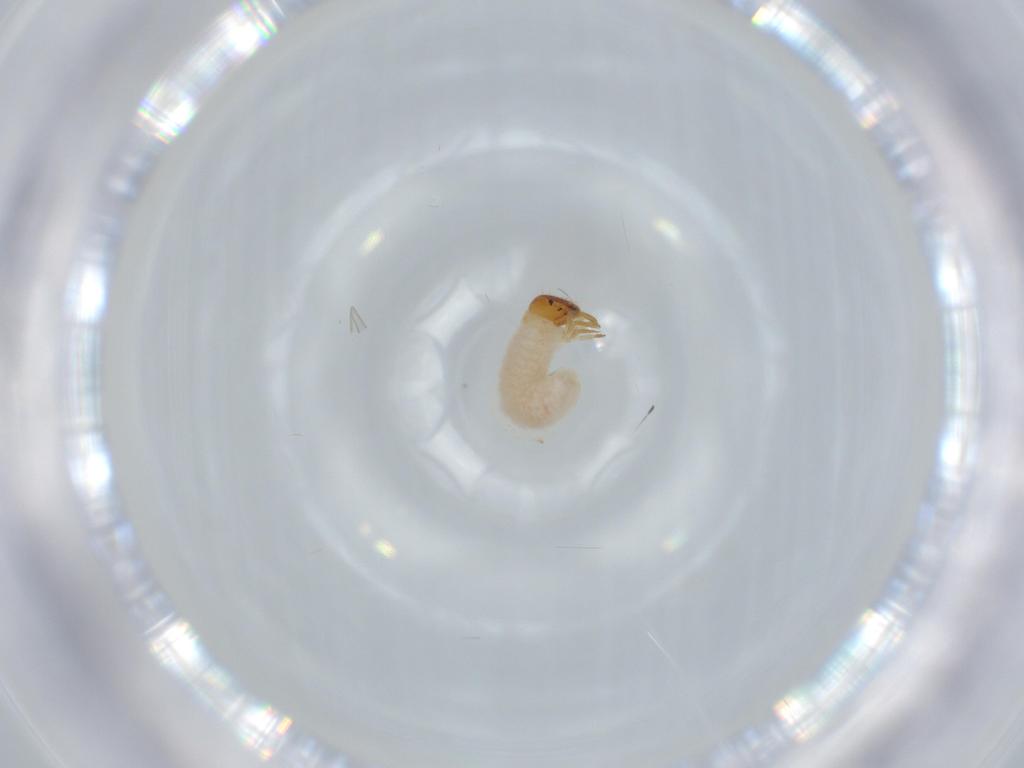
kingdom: Animalia
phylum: Arthropoda
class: Insecta
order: Coleoptera
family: Chrysomelidae
